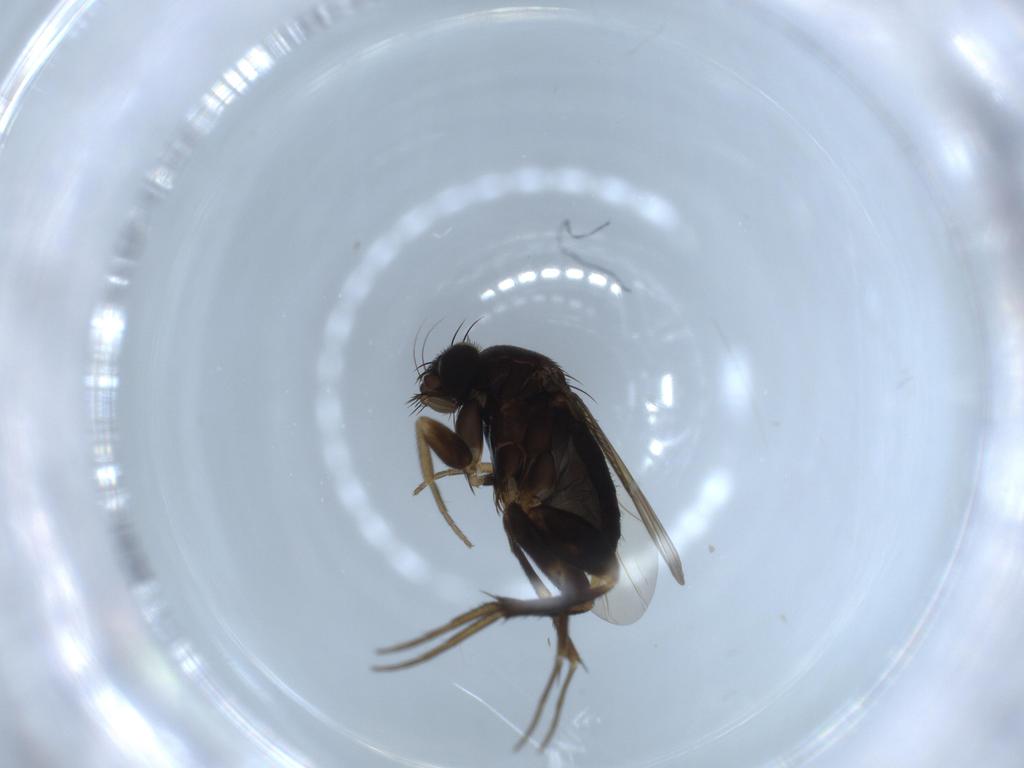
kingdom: Animalia
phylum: Arthropoda
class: Insecta
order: Diptera
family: Phoridae
